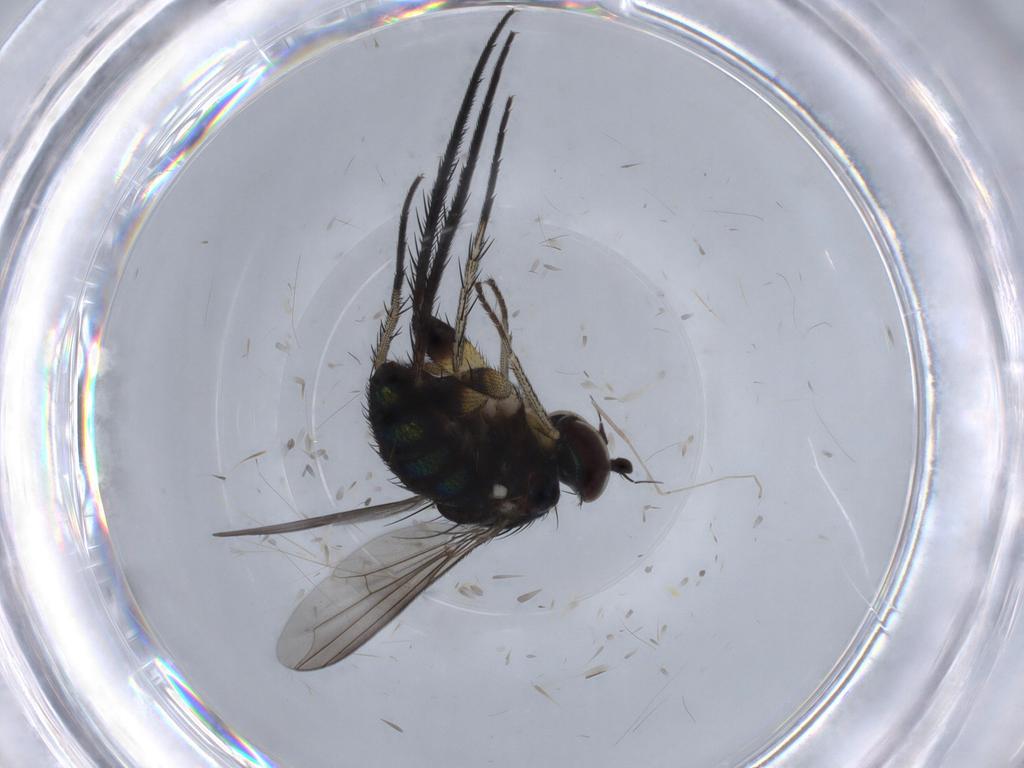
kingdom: Animalia
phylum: Arthropoda
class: Insecta
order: Diptera
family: Dolichopodidae
